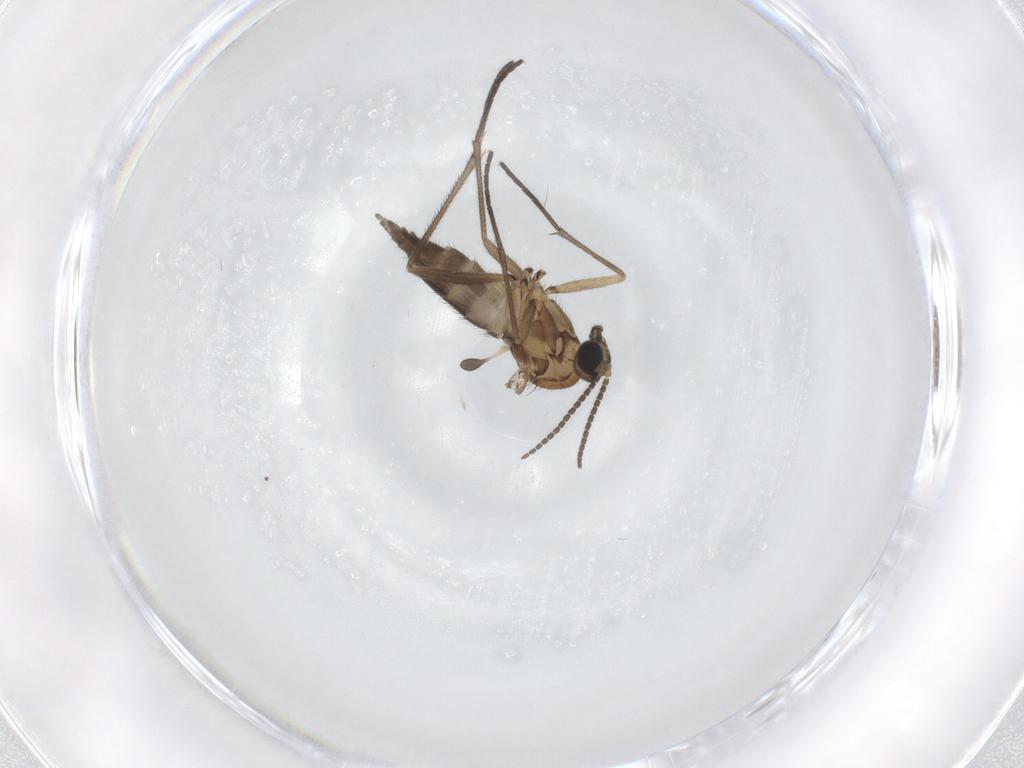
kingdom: Animalia
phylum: Arthropoda
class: Insecta
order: Diptera
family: Sciaridae
